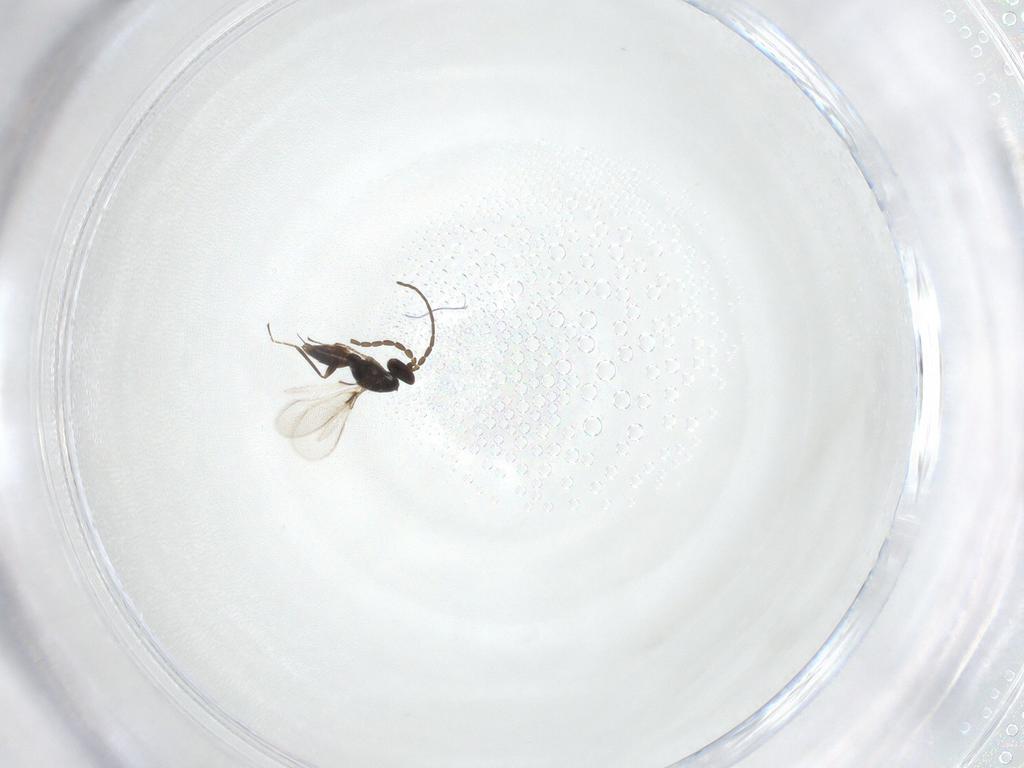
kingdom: Animalia
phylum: Arthropoda
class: Insecta
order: Hymenoptera
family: Mymaridae
